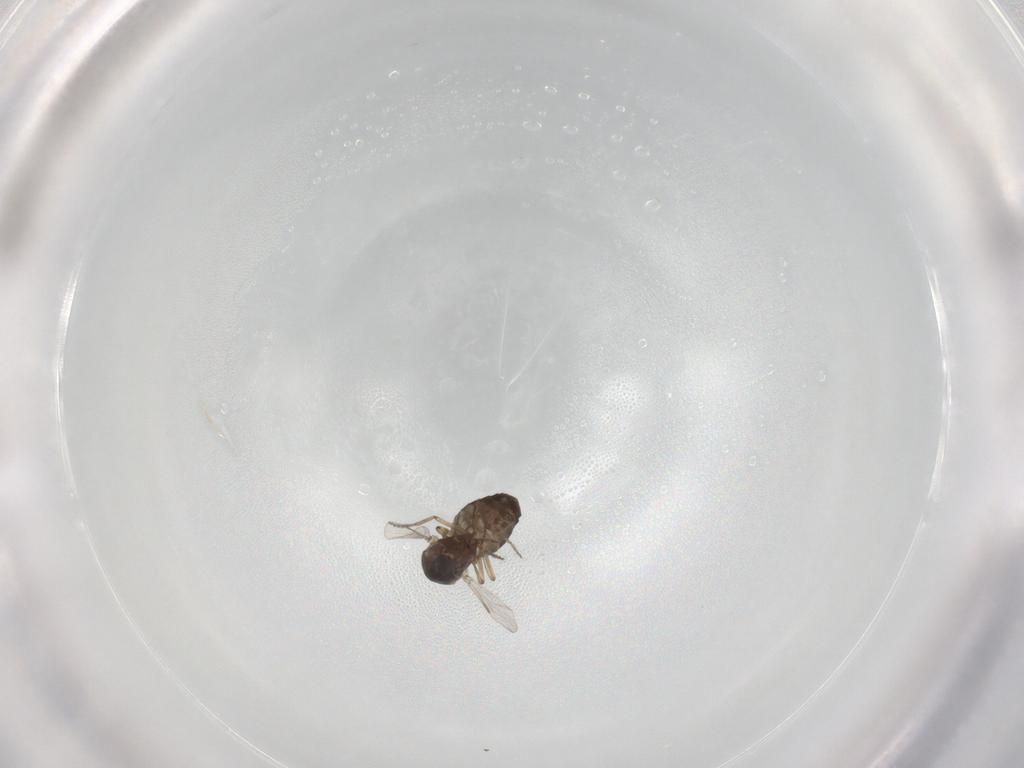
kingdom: Animalia
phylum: Arthropoda
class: Insecta
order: Diptera
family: Ceratopogonidae
